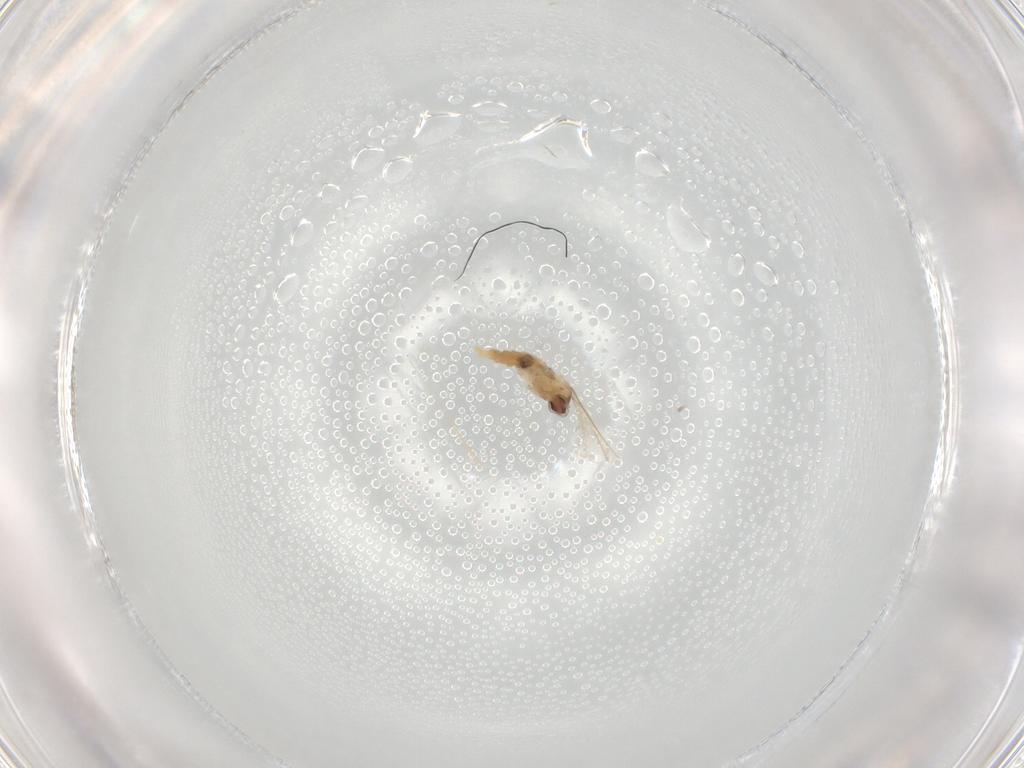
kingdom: Animalia
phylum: Arthropoda
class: Insecta
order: Diptera
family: Cecidomyiidae
